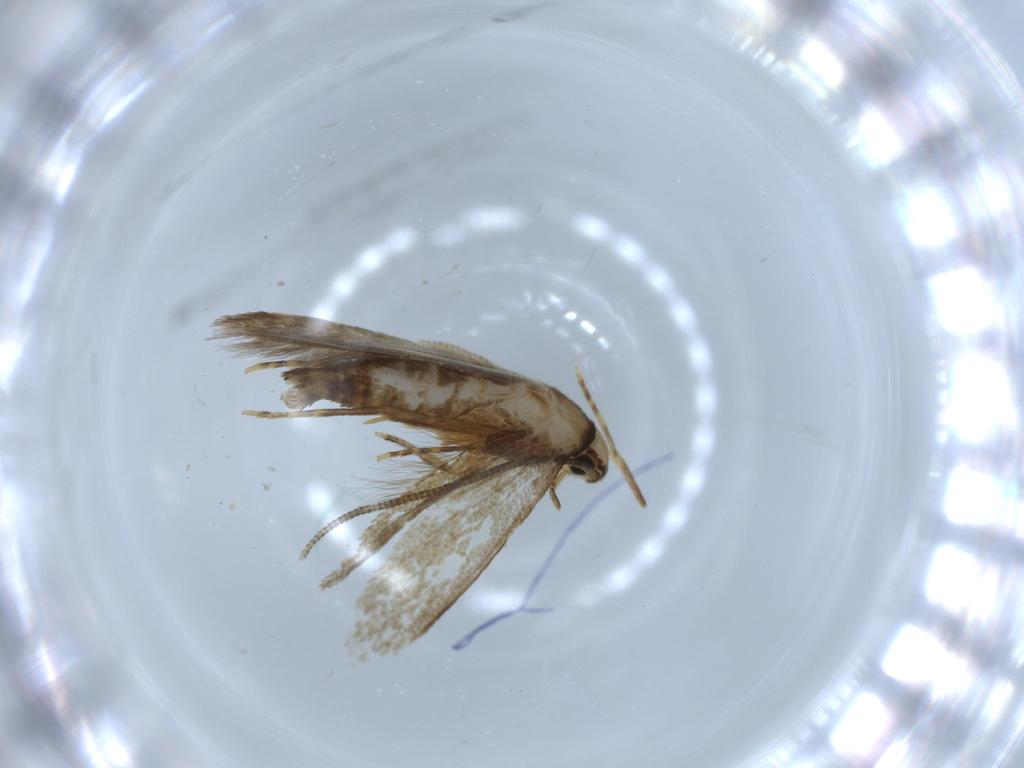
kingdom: Animalia
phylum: Arthropoda
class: Insecta
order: Lepidoptera
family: Tineidae
